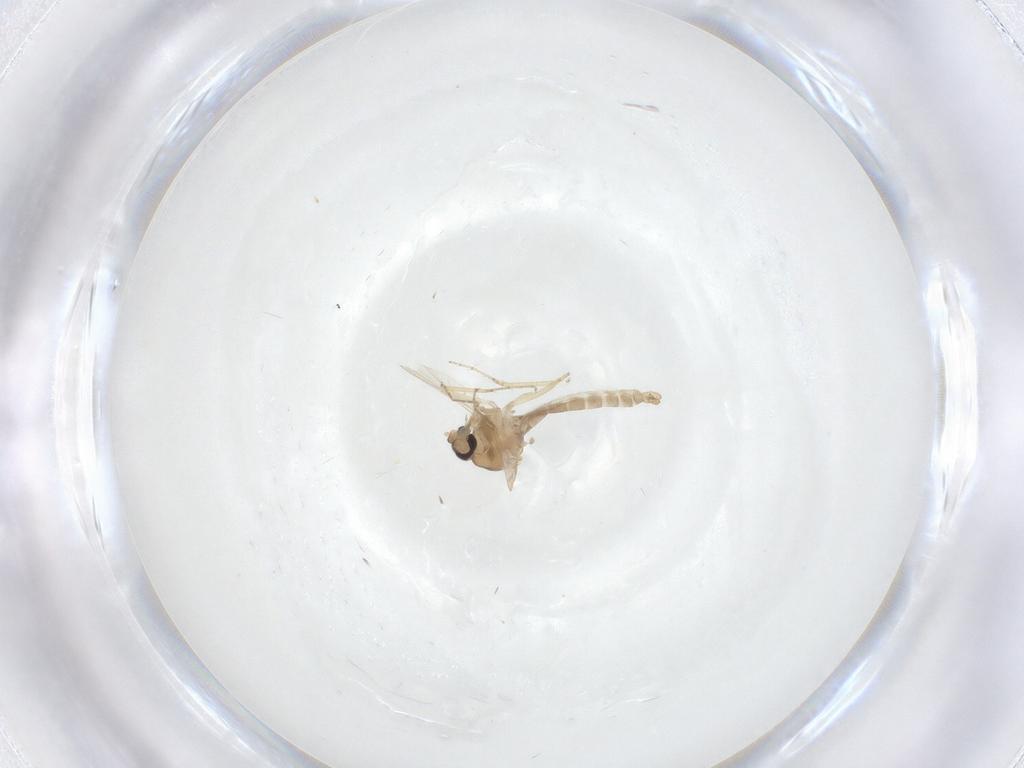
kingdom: Animalia
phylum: Arthropoda
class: Insecta
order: Diptera
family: Ceratopogonidae
